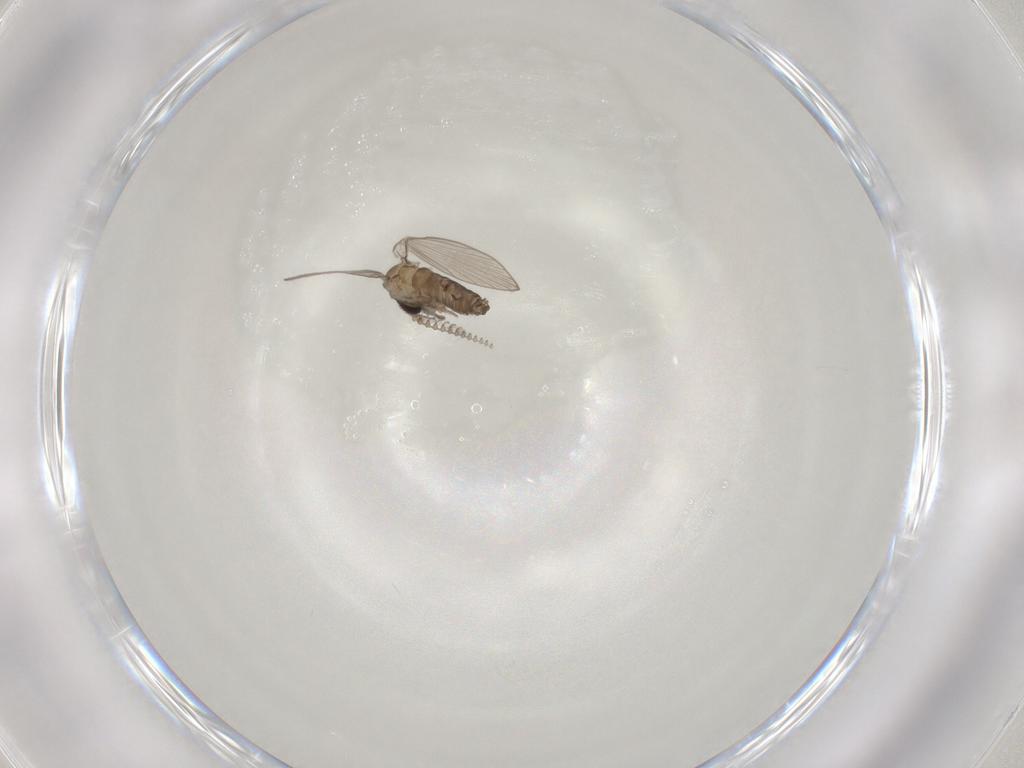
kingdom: Animalia
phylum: Arthropoda
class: Insecta
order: Diptera
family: Psychodidae
